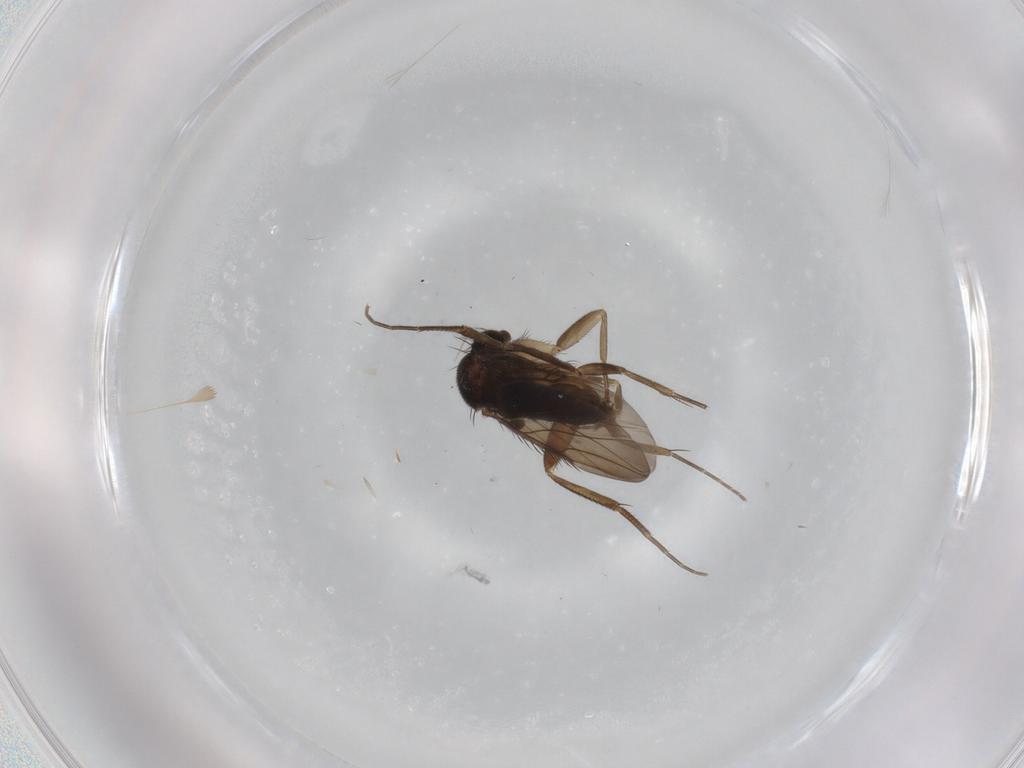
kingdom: Animalia
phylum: Arthropoda
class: Insecta
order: Diptera
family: Phoridae
